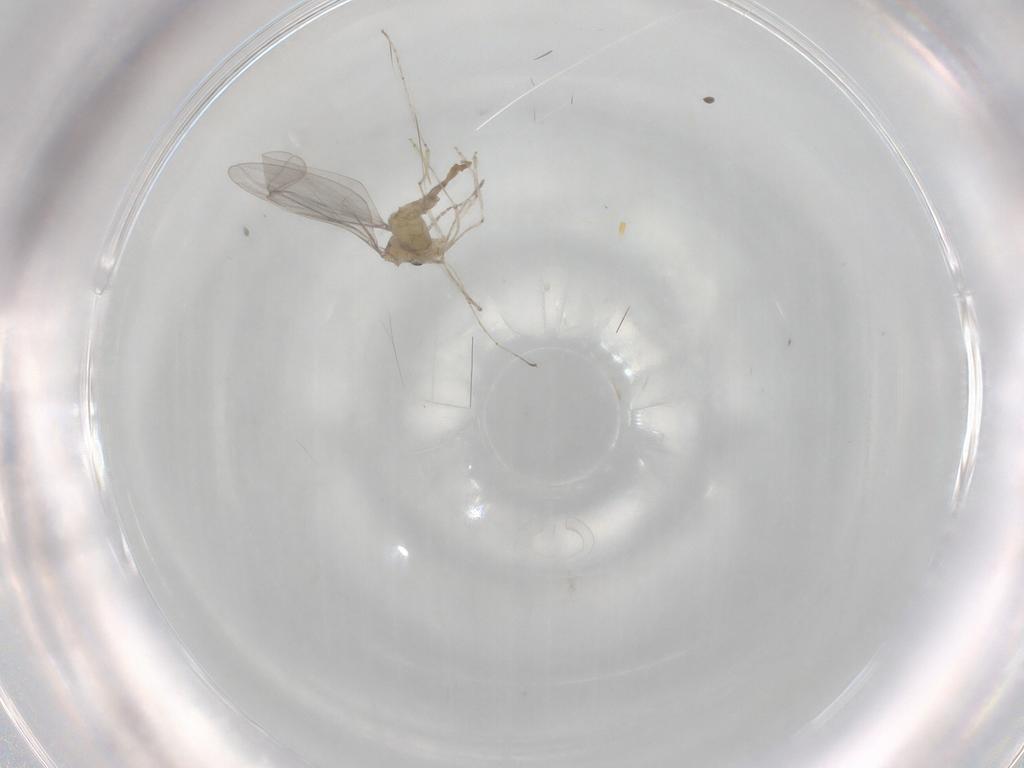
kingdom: Animalia
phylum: Arthropoda
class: Insecta
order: Diptera
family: Cecidomyiidae
